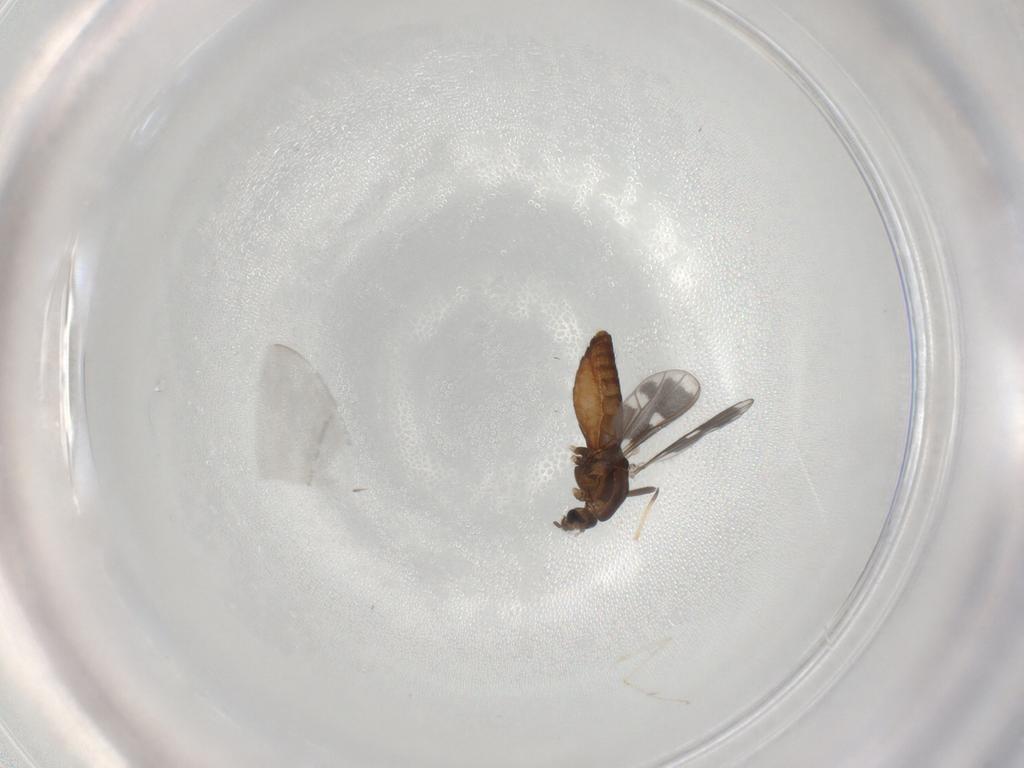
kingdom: Animalia
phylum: Arthropoda
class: Insecta
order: Diptera
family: Chironomidae
